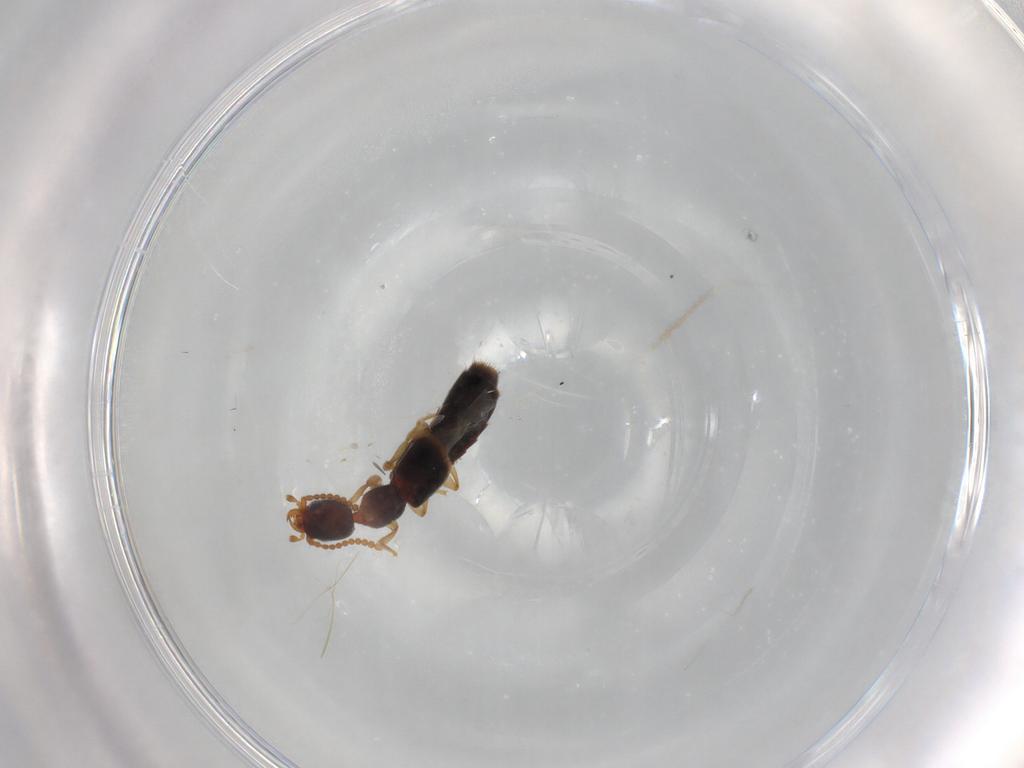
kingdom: Animalia
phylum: Arthropoda
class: Insecta
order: Coleoptera
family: Staphylinidae
